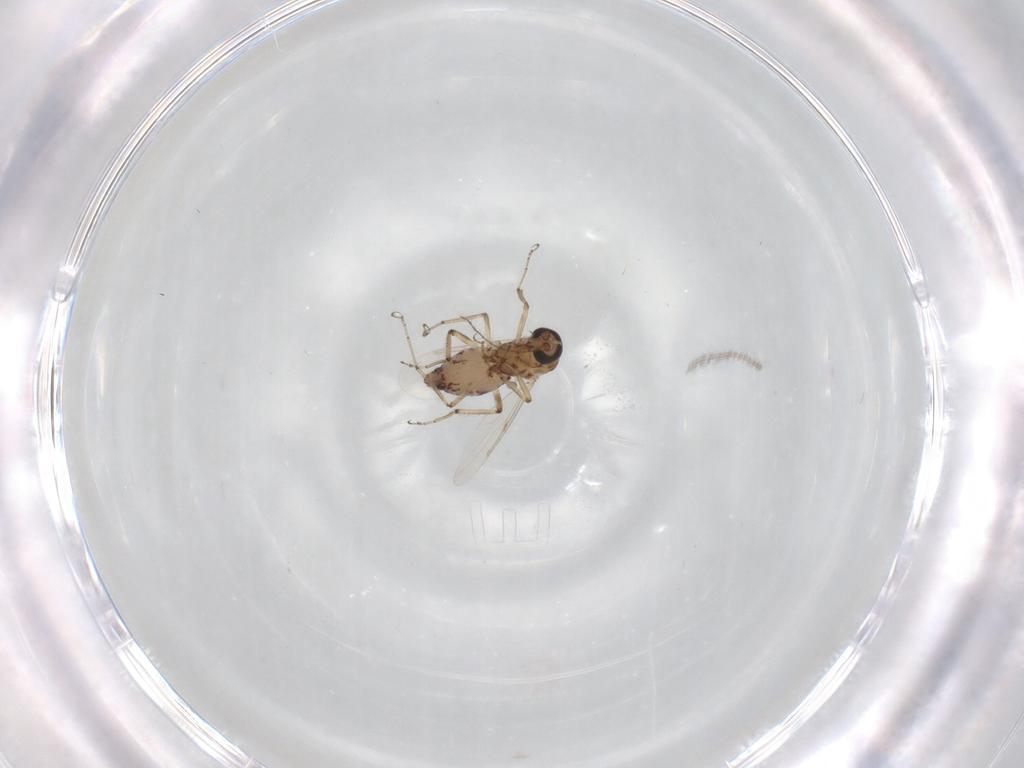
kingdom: Animalia
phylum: Arthropoda
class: Insecta
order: Diptera
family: Ceratopogonidae
